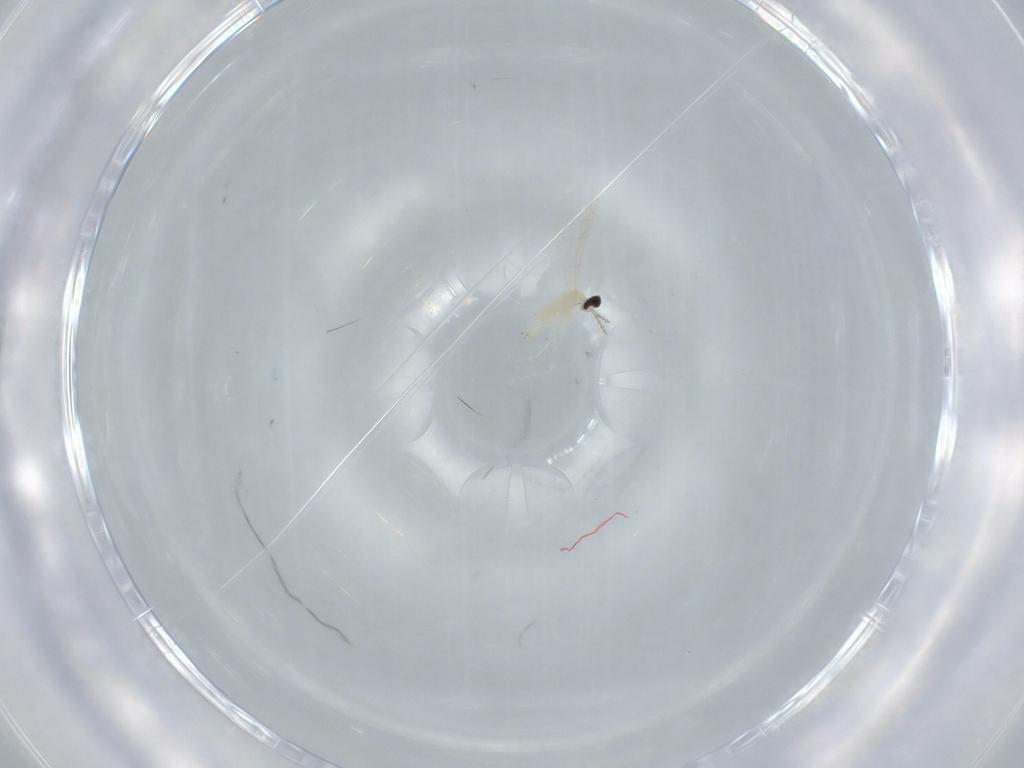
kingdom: Animalia
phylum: Arthropoda
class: Insecta
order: Diptera
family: Cecidomyiidae
